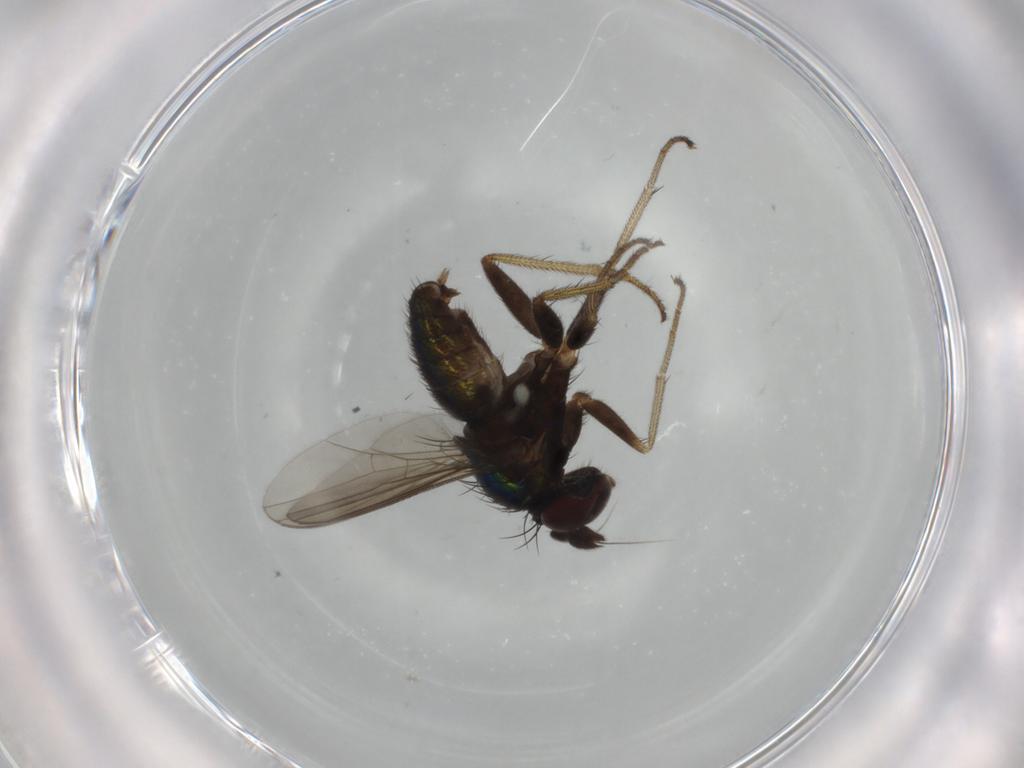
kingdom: Animalia
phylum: Arthropoda
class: Insecta
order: Diptera
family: Dolichopodidae
